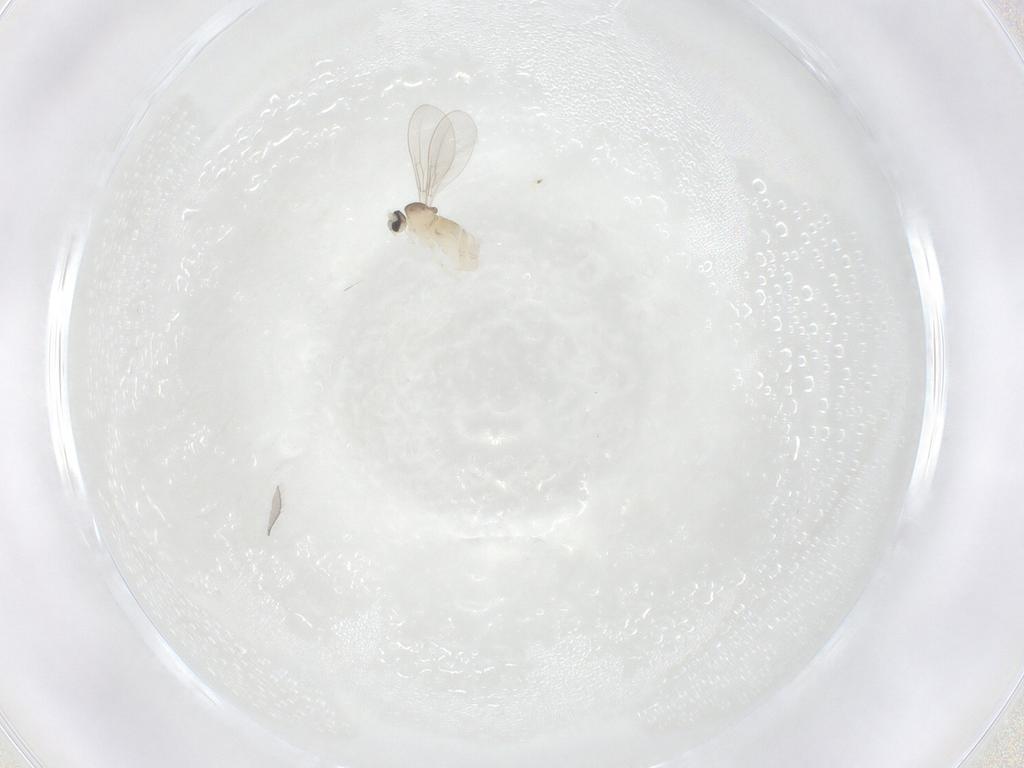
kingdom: Animalia
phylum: Arthropoda
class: Insecta
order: Diptera
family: Cecidomyiidae
